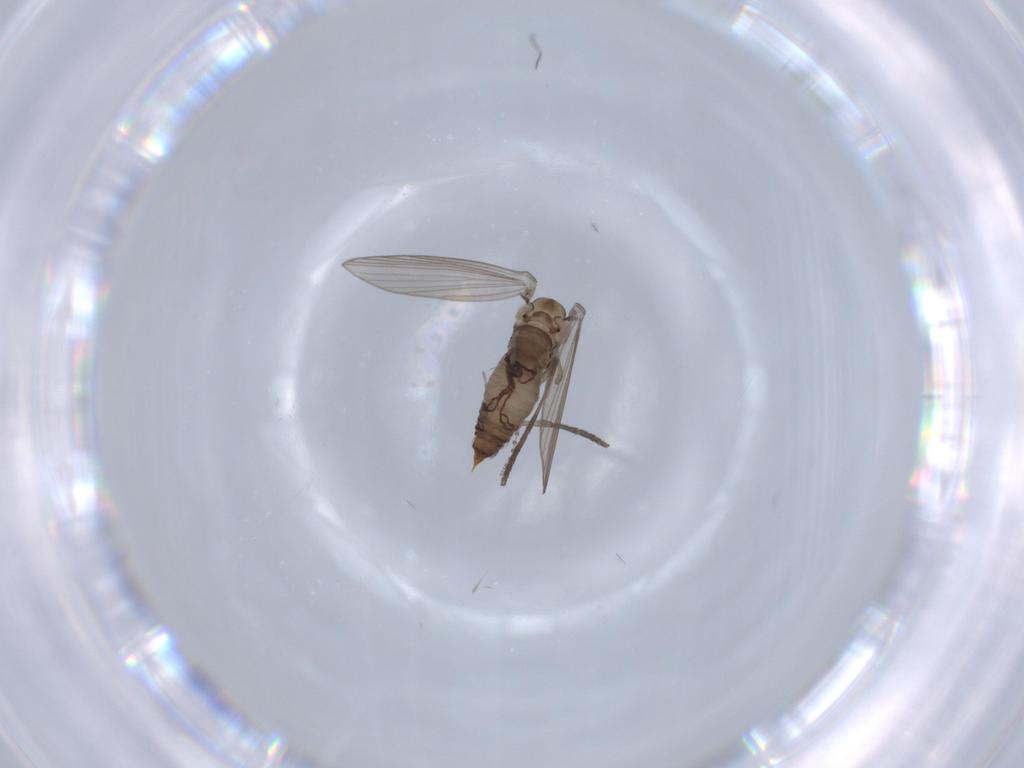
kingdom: Animalia
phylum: Arthropoda
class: Insecta
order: Diptera
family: Psychodidae
